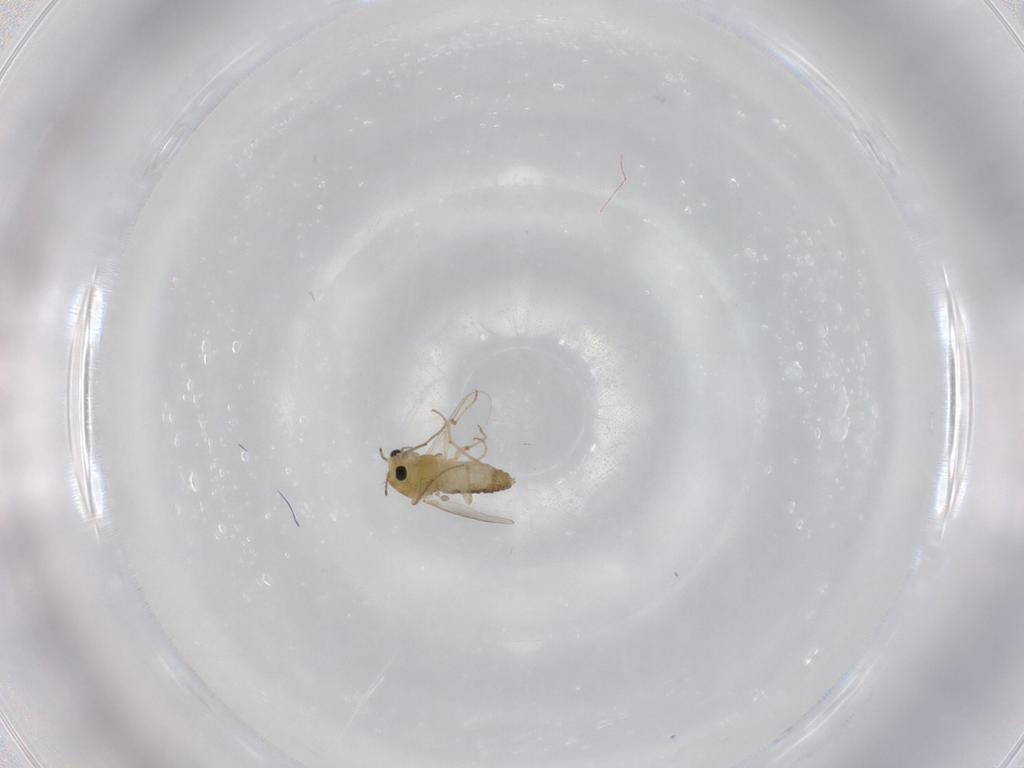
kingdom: Animalia
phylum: Arthropoda
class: Insecta
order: Diptera
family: Chironomidae
